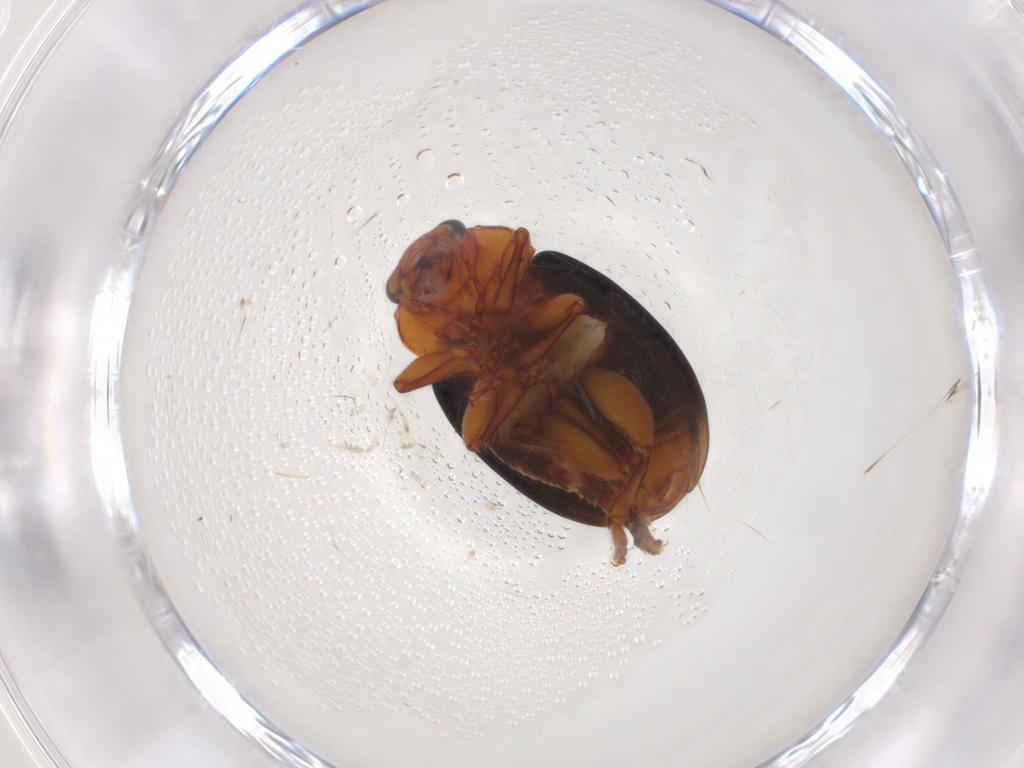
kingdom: Animalia
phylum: Arthropoda
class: Insecta
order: Coleoptera
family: Chrysomelidae
